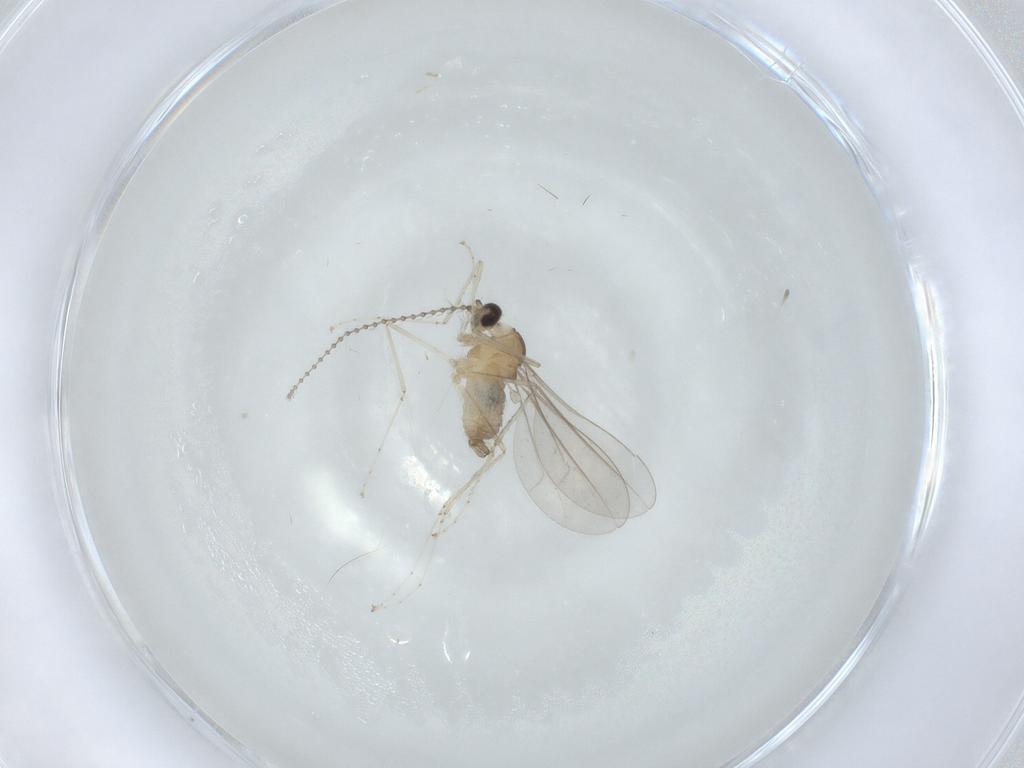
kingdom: Animalia
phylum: Arthropoda
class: Insecta
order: Diptera
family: Cecidomyiidae
